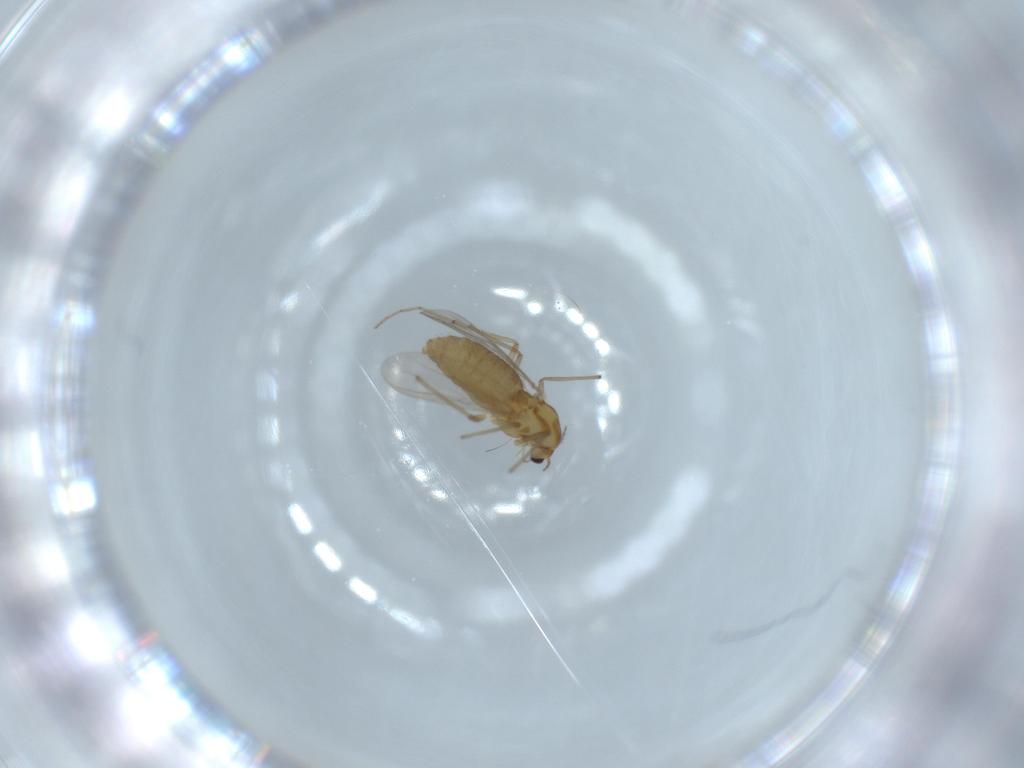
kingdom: Animalia
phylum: Arthropoda
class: Insecta
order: Diptera
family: Chironomidae
